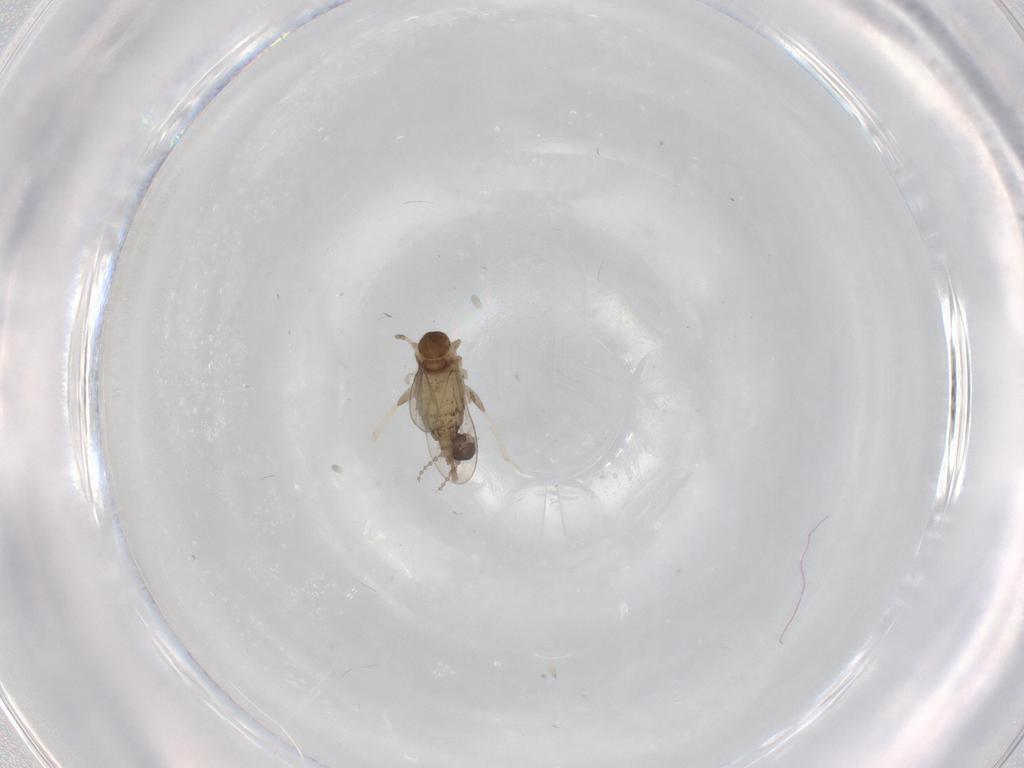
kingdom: Animalia
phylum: Arthropoda
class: Insecta
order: Diptera
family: Cecidomyiidae
